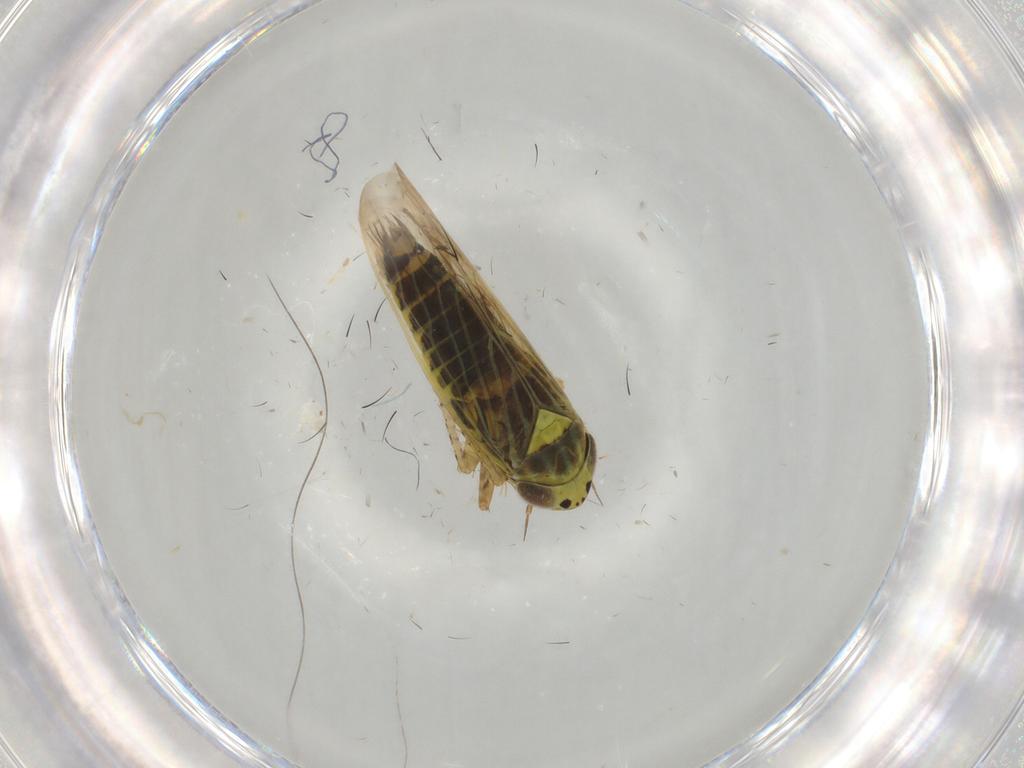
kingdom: Animalia
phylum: Arthropoda
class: Insecta
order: Hemiptera
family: Cicadellidae
